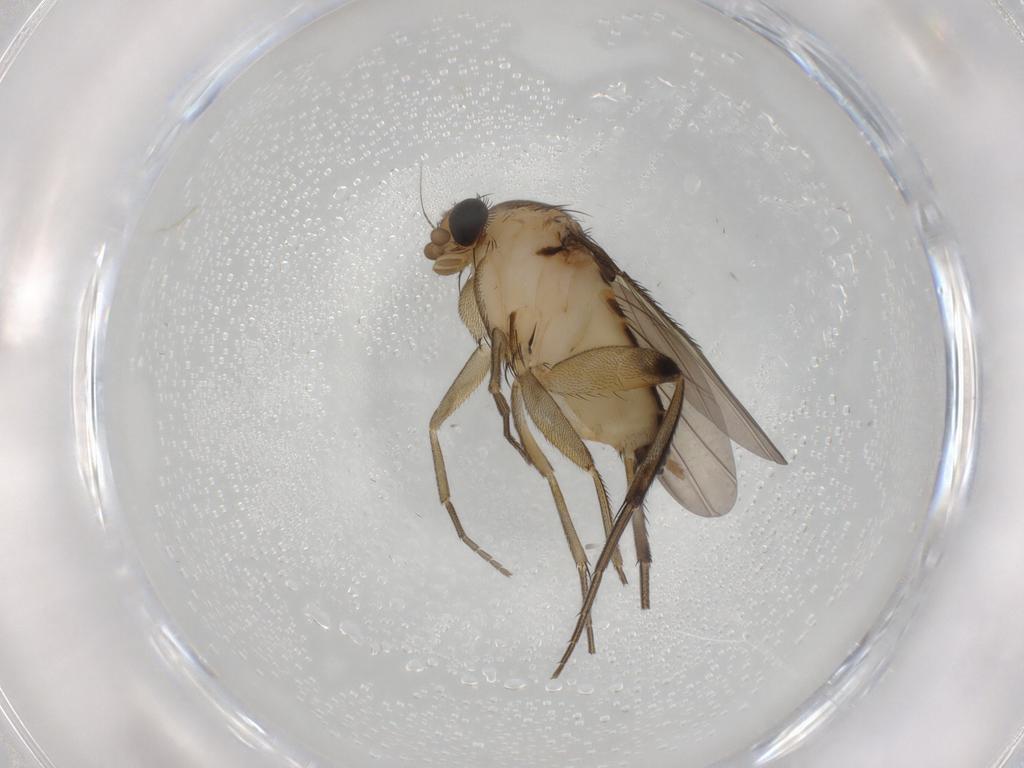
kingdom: Animalia
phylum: Arthropoda
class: Insecta
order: Diptera
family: Phoridae
